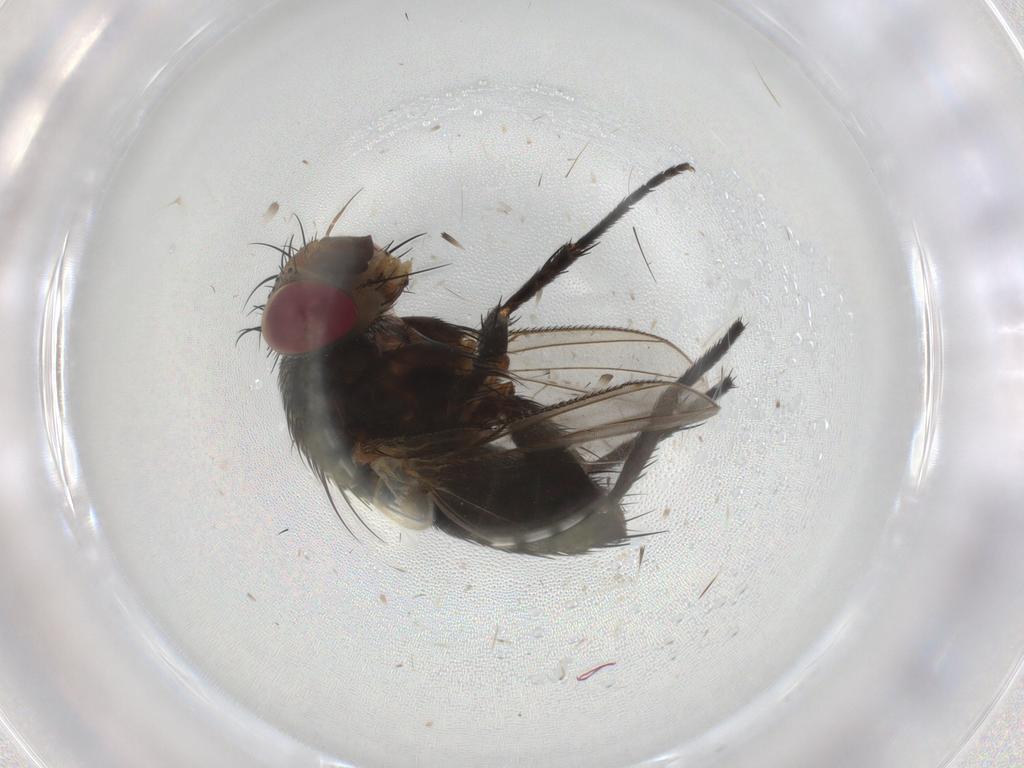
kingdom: Animalia
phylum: Arthropoda
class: Insecta
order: Diptera
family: Tachinidae
